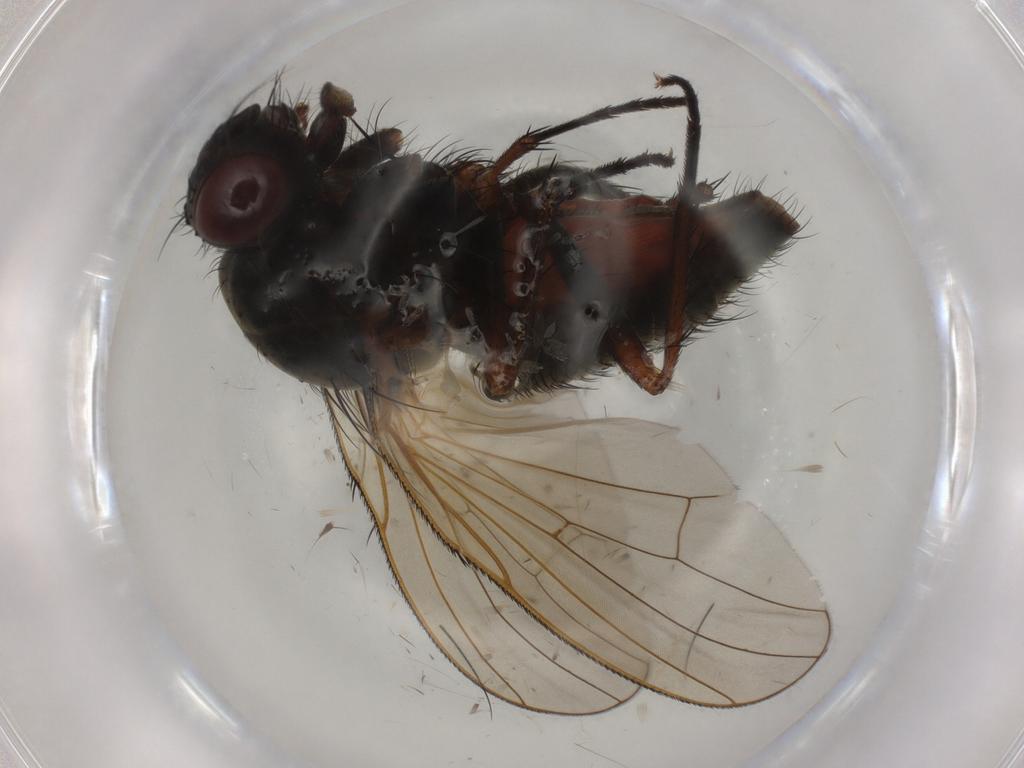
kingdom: Animalia
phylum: Arthropoda
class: Insecta
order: Diptera
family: Anthomyiidae
